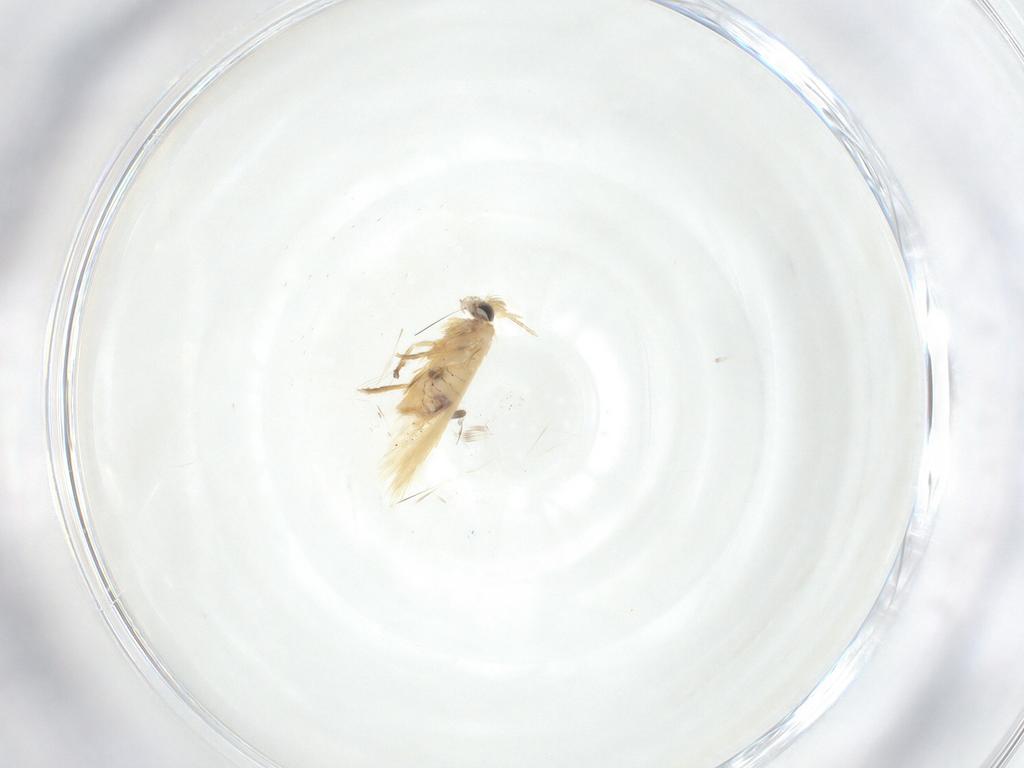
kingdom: Animalia
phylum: Arthropoda
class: Insecta
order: Lepidoptera
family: Nepticulidae
